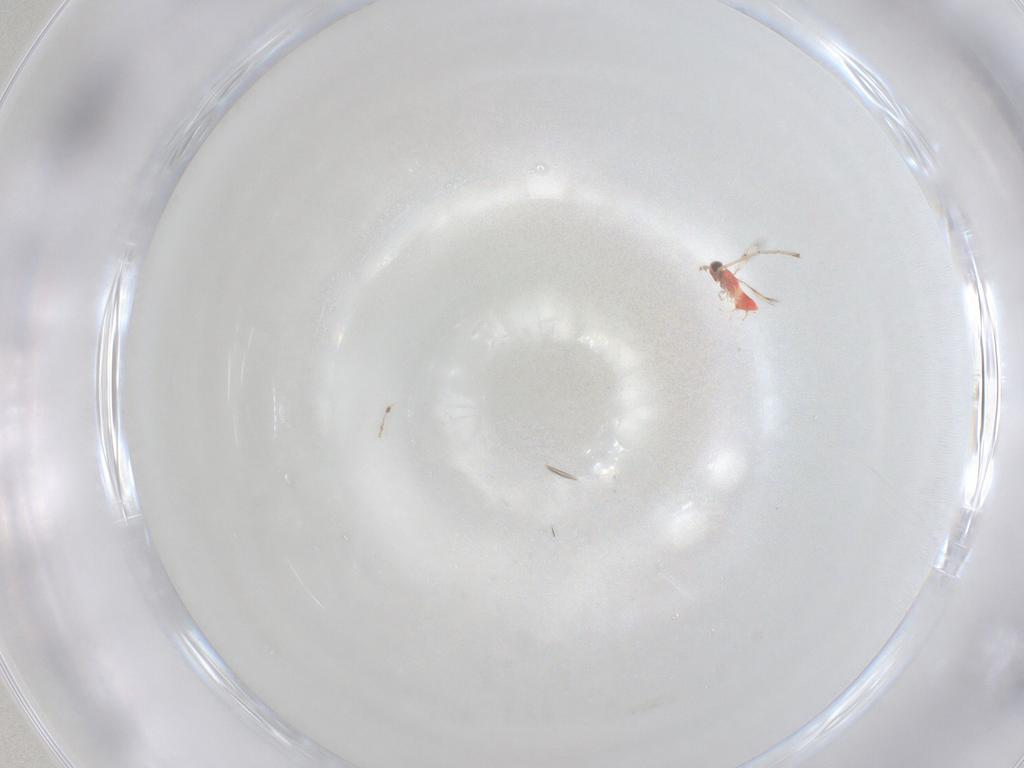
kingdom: Animalia
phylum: Arthropoda
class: Insecta
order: Hymenoptera
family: Trichogrammatidae
